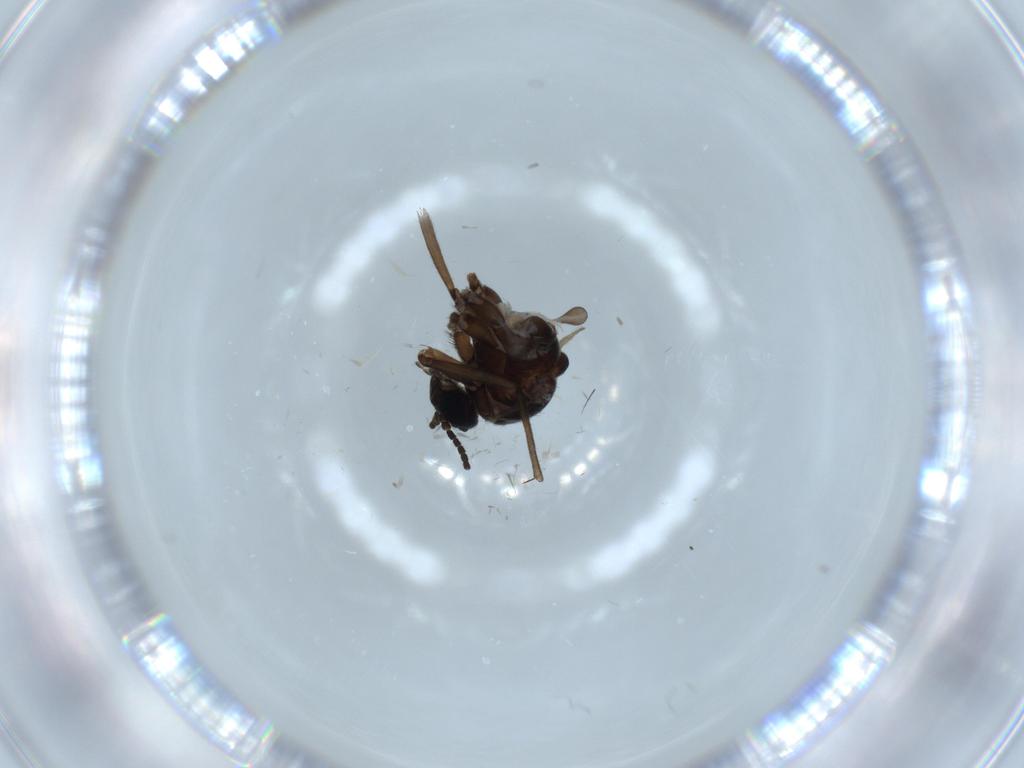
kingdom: Animalia
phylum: Arthropoda
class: Insecta
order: Diptera
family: Sciaridae
